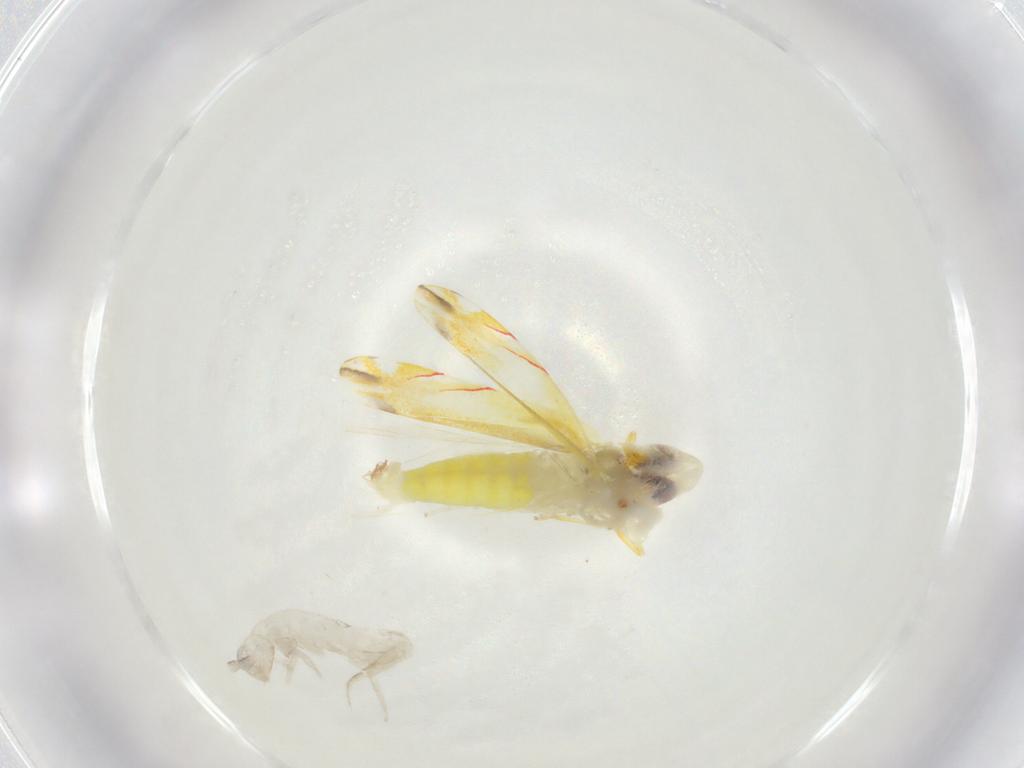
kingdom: Animalia
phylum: Arthropoda
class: Insecta
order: Hemiptera
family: Cicadellidae
